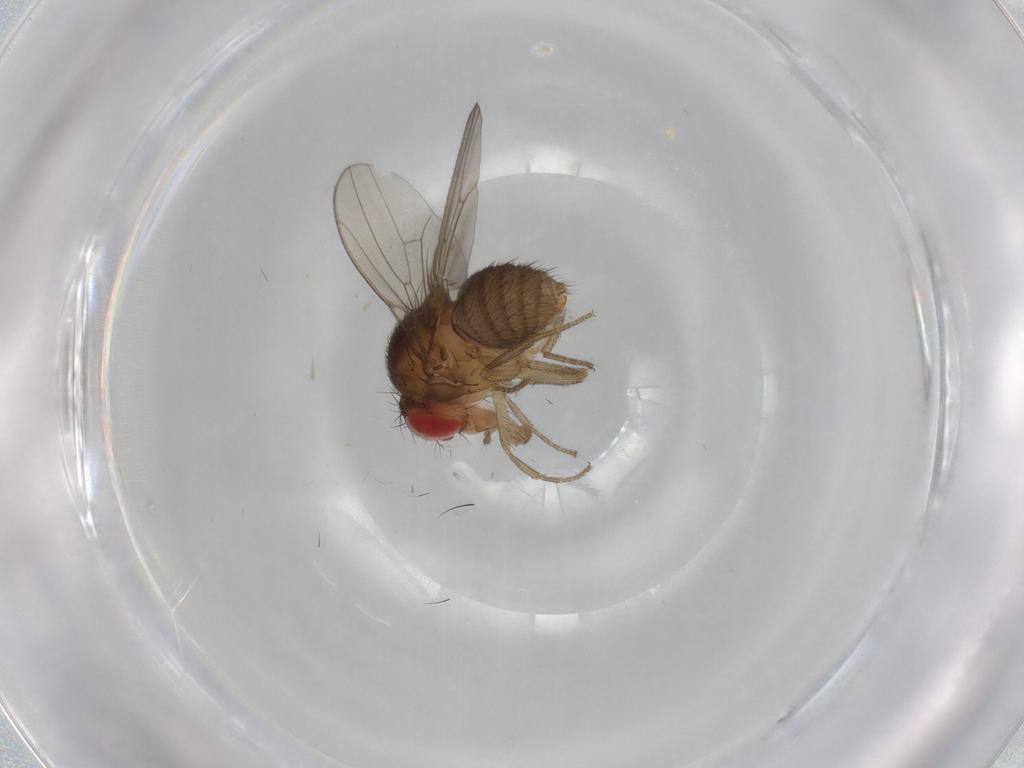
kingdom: Animalia
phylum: Arthropoda
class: Insecta
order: Diptera
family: Drosophilidae
